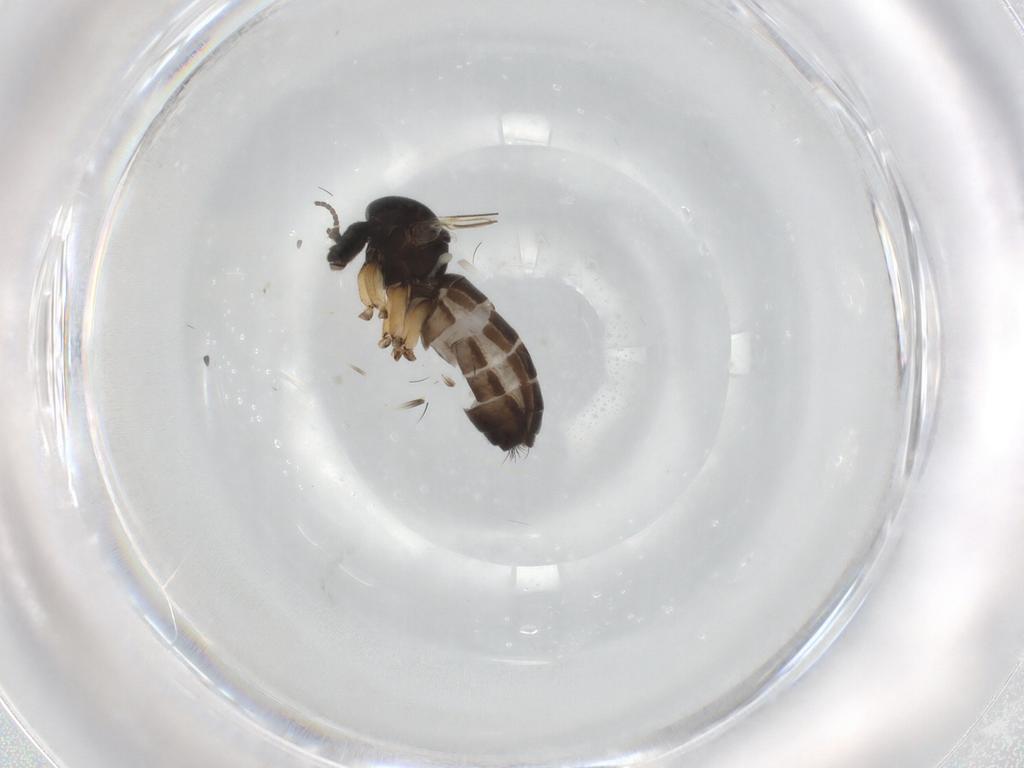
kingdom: Animalia
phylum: Arthropoda
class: Insecta
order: Diptera
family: Mycetophilidae
